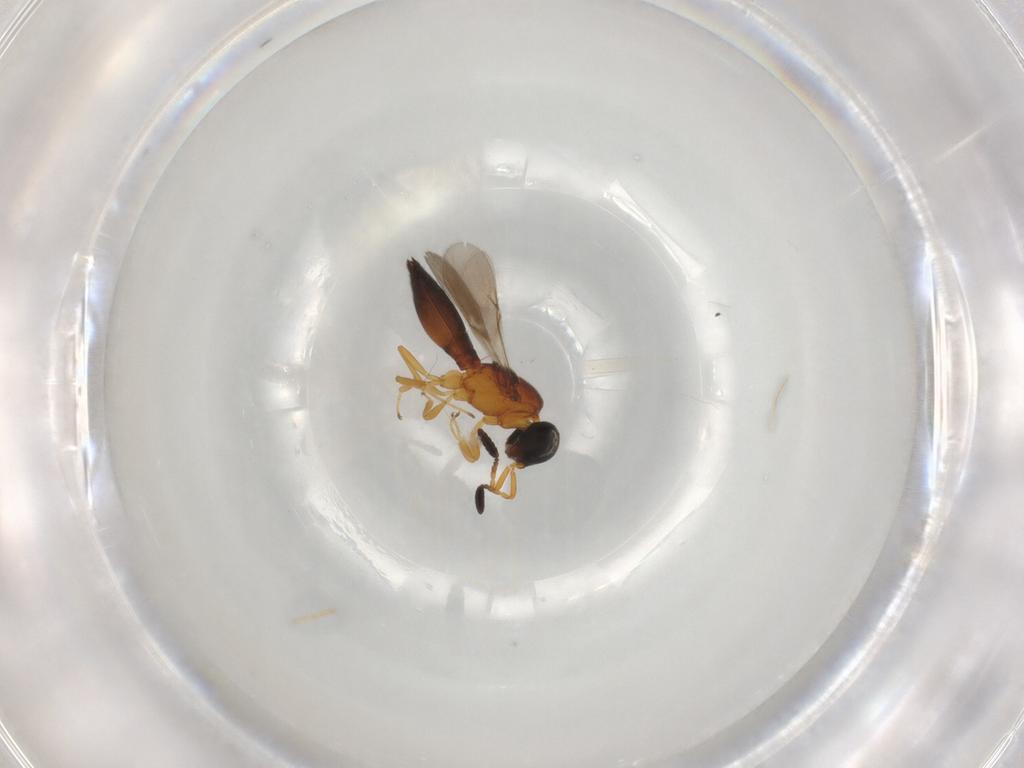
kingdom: Animalia
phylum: Arthropoda
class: Insecta
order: Hymenoptera
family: Scelionidae
